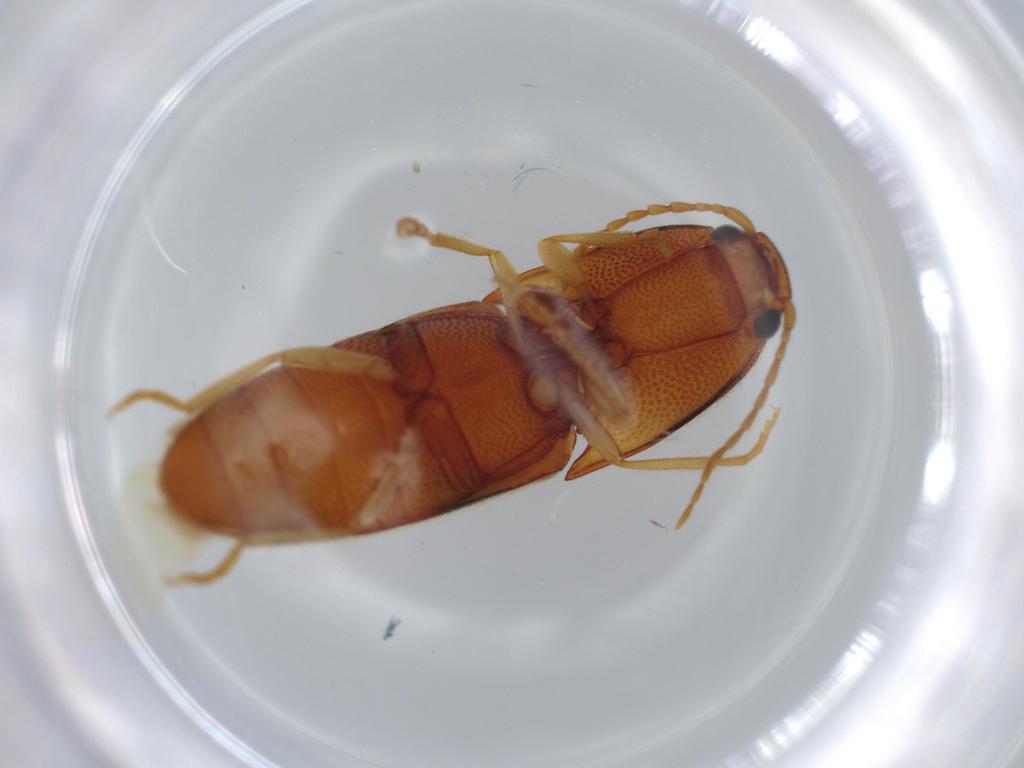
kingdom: Animalia
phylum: Arthropoda
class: Insecta
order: Coleoptera
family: Elateridae
